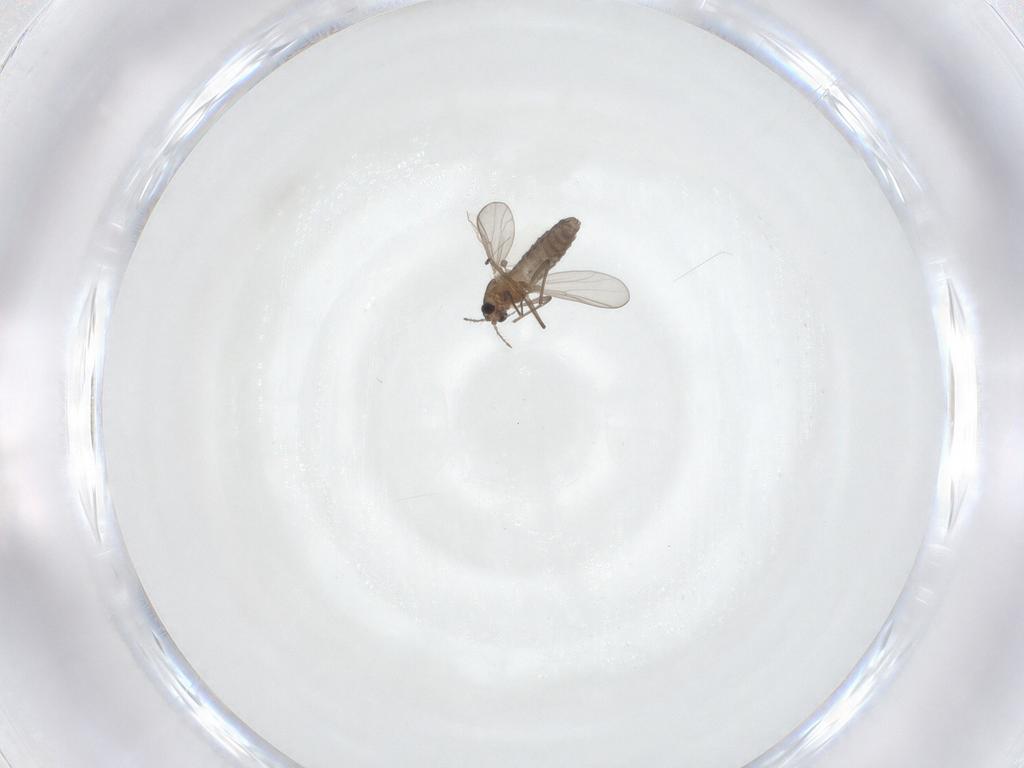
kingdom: Animalia
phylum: Arthropoda
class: Insecta
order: Diptera
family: Chironomidae
